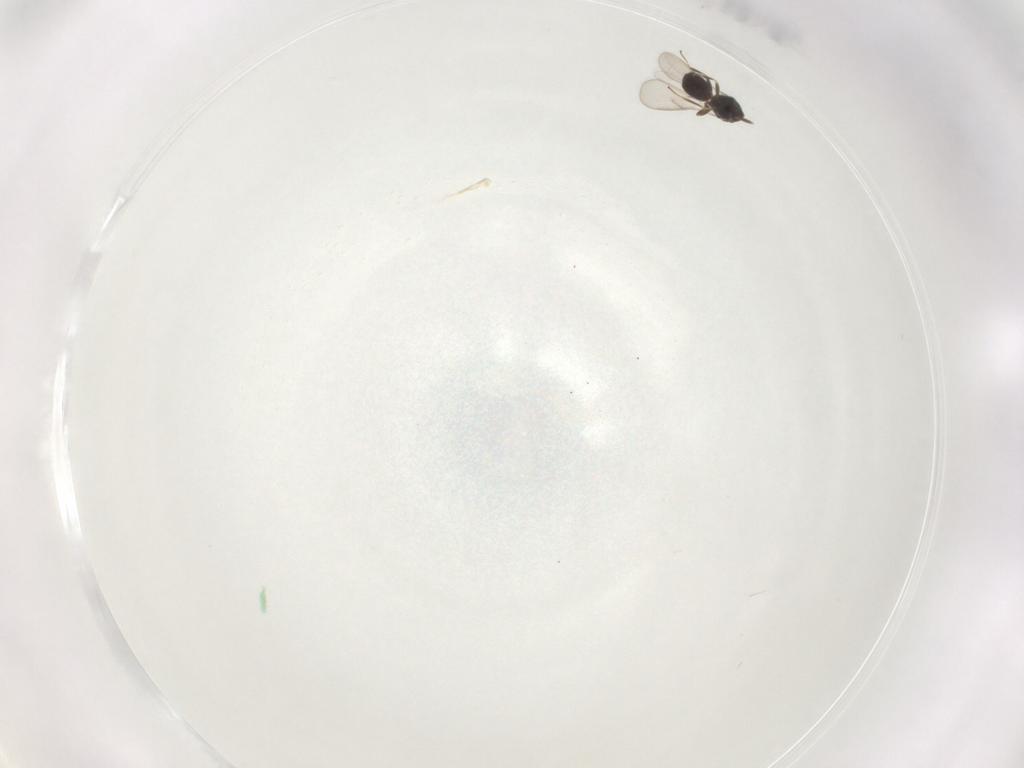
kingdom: Animalia
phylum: Arthropoda
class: Insecta
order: Hymenoptera
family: Scelionidae
